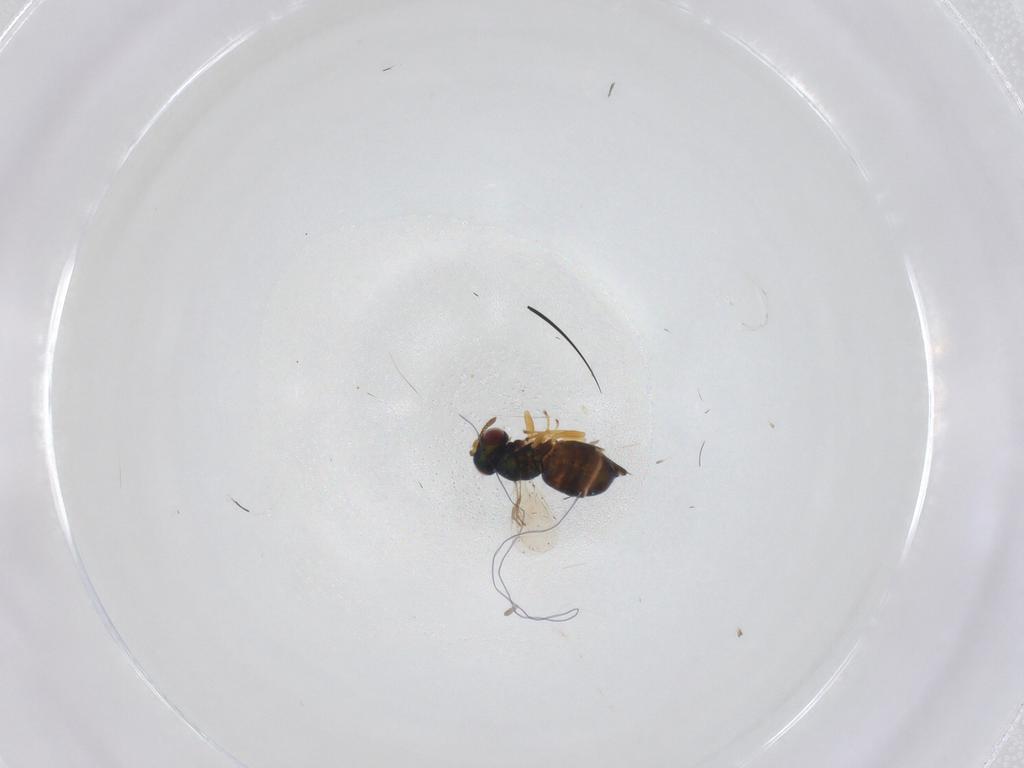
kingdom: Animalia
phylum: Arthropoda
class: Insecta
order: Hymenoptera
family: Pteromalidae
